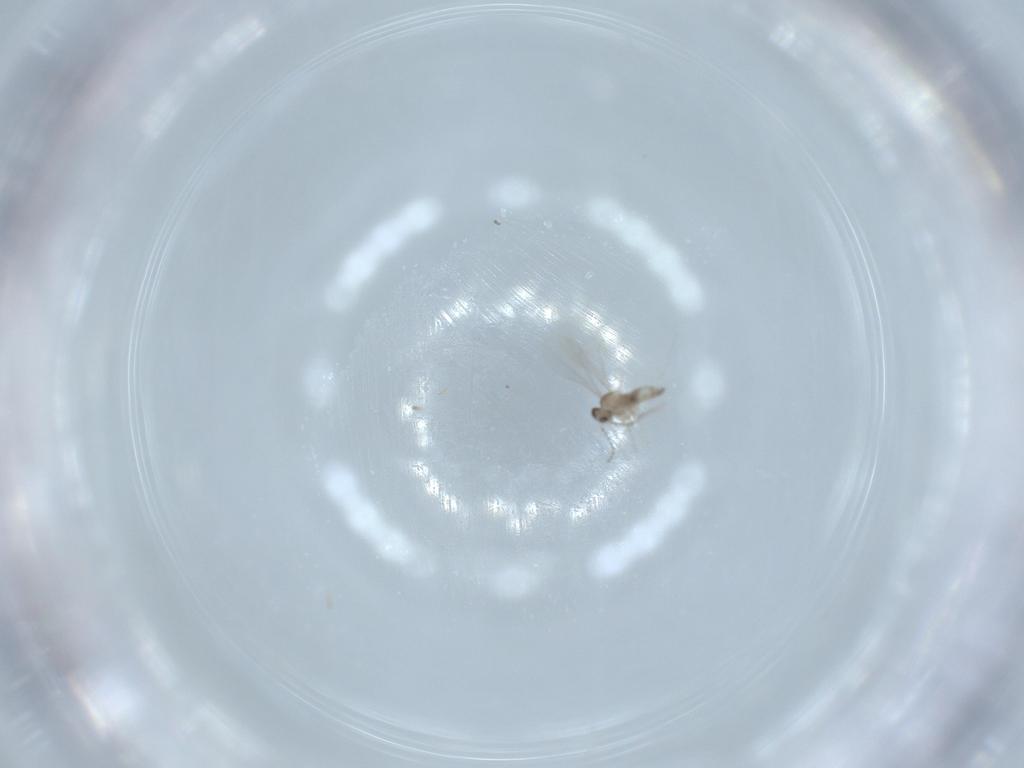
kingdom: Animalia
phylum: Arthropoda
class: Insecta
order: Diptera
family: Cecidomyiidae
